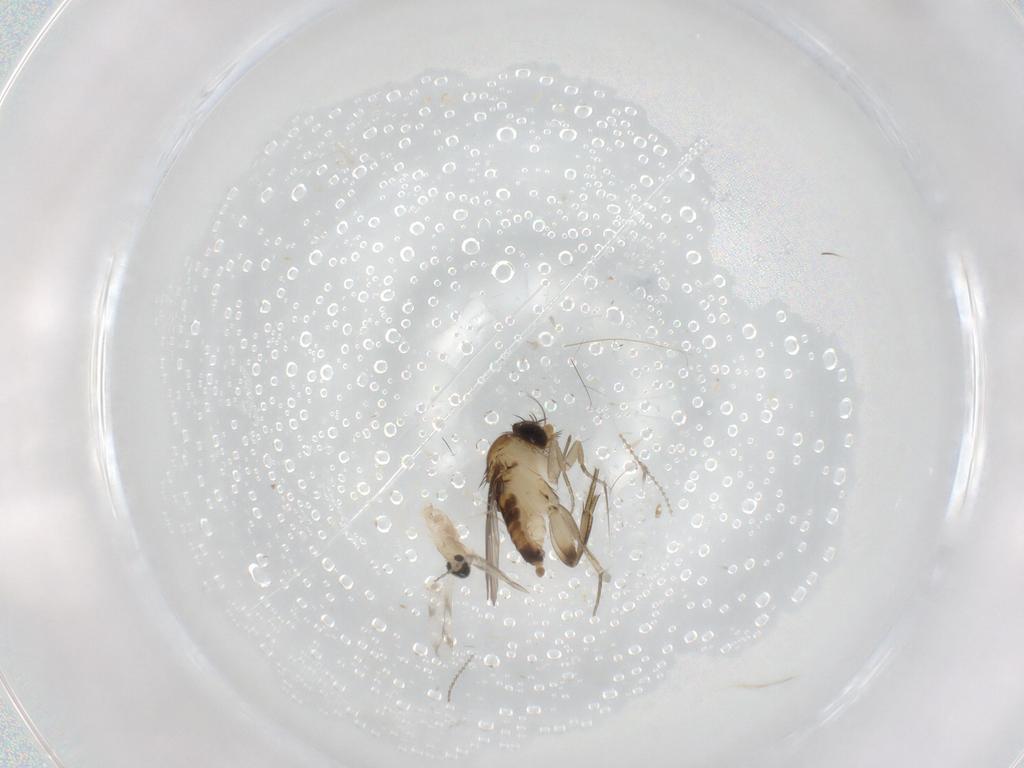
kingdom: Animalia
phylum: Arthropoda
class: Insecta
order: Diptera
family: Phoridae
